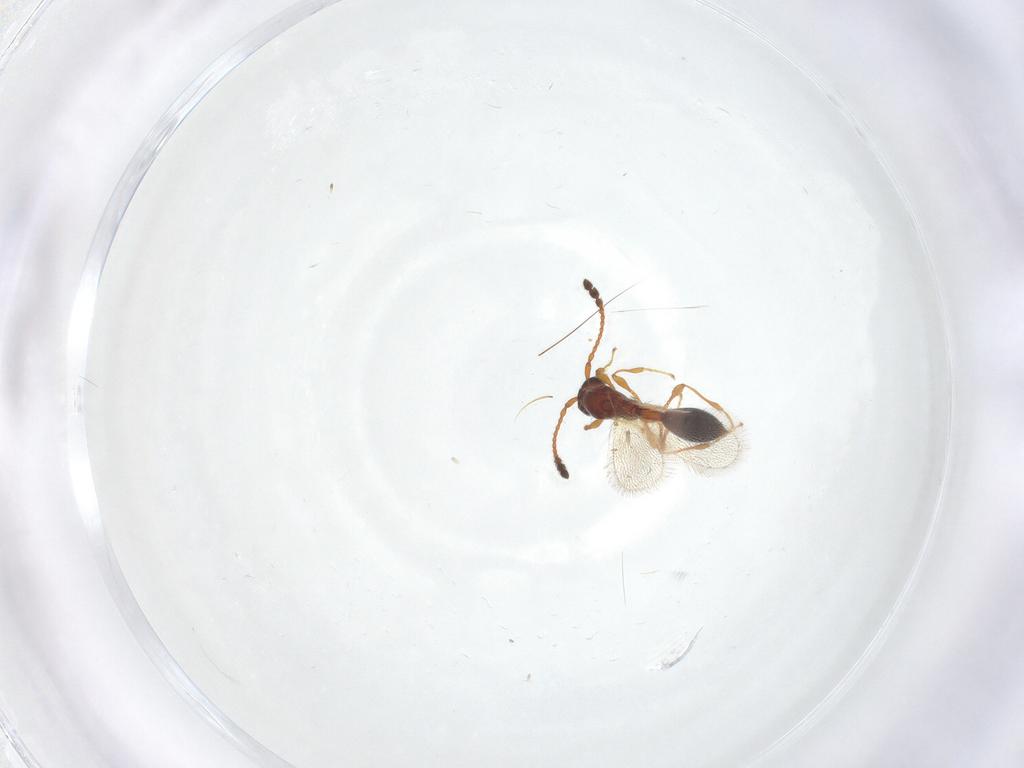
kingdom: Animalia
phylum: Arthropoda
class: Insecta
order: Hymenoptera
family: Diapriidae
